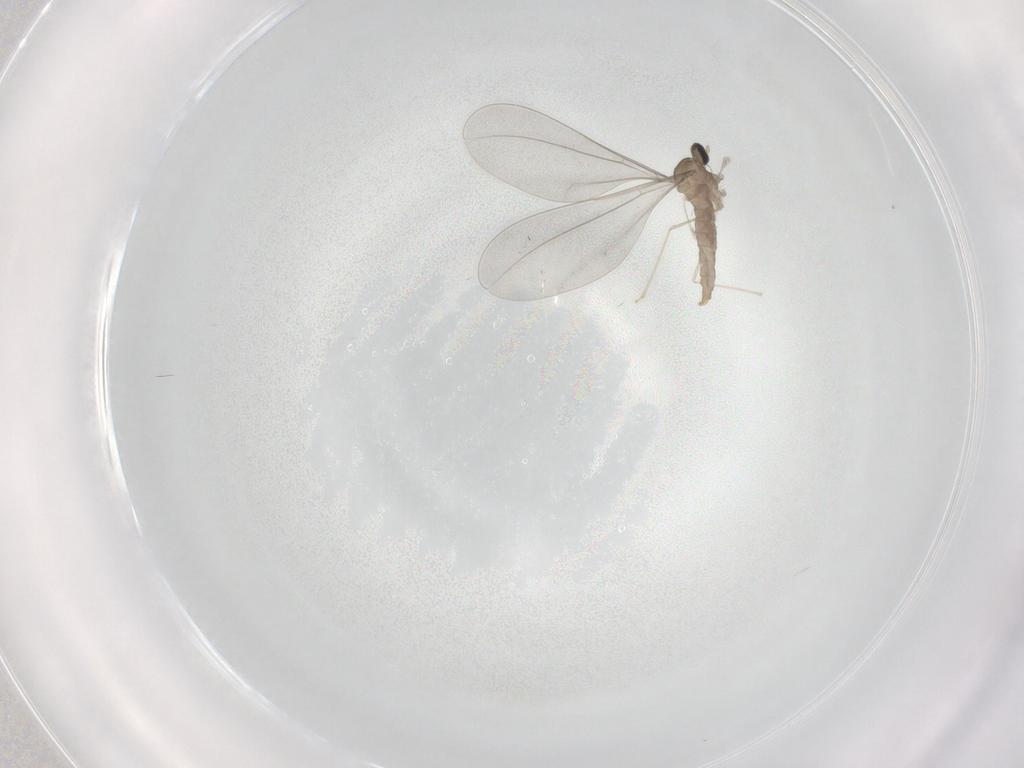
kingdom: Animalia
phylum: Arthropoda
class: Insecta
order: Diptera
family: Cecidomyiidae
